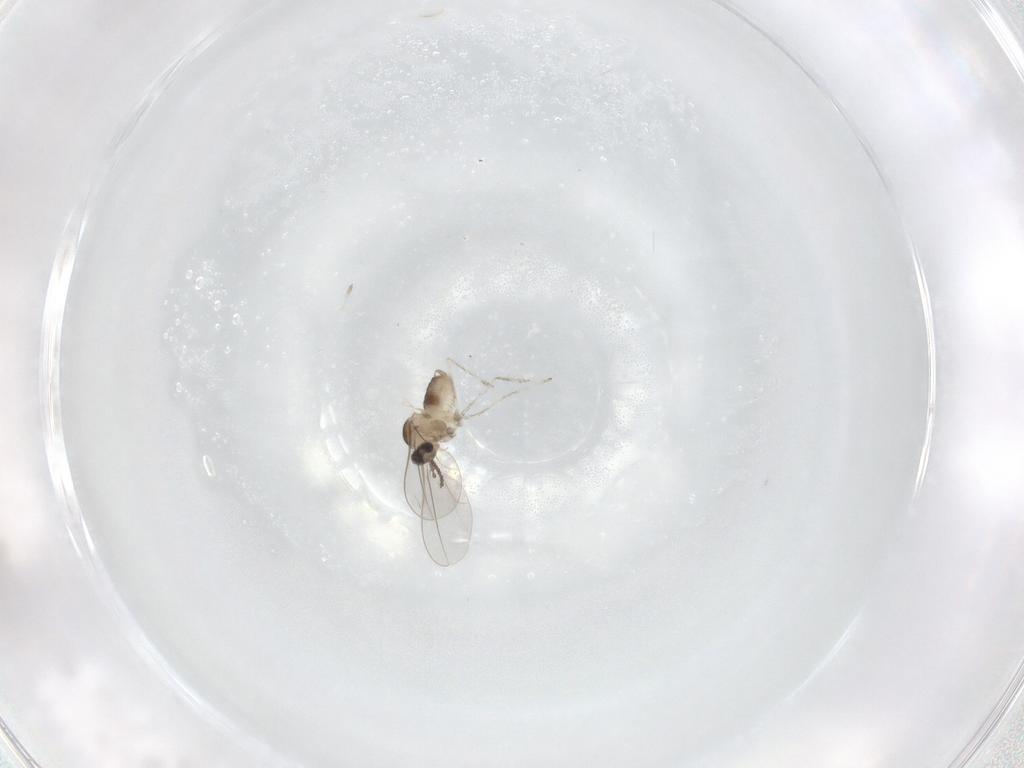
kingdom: Animalia
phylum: Arthropoda
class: Insecta
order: Diptera
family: Cecidomyiidae
